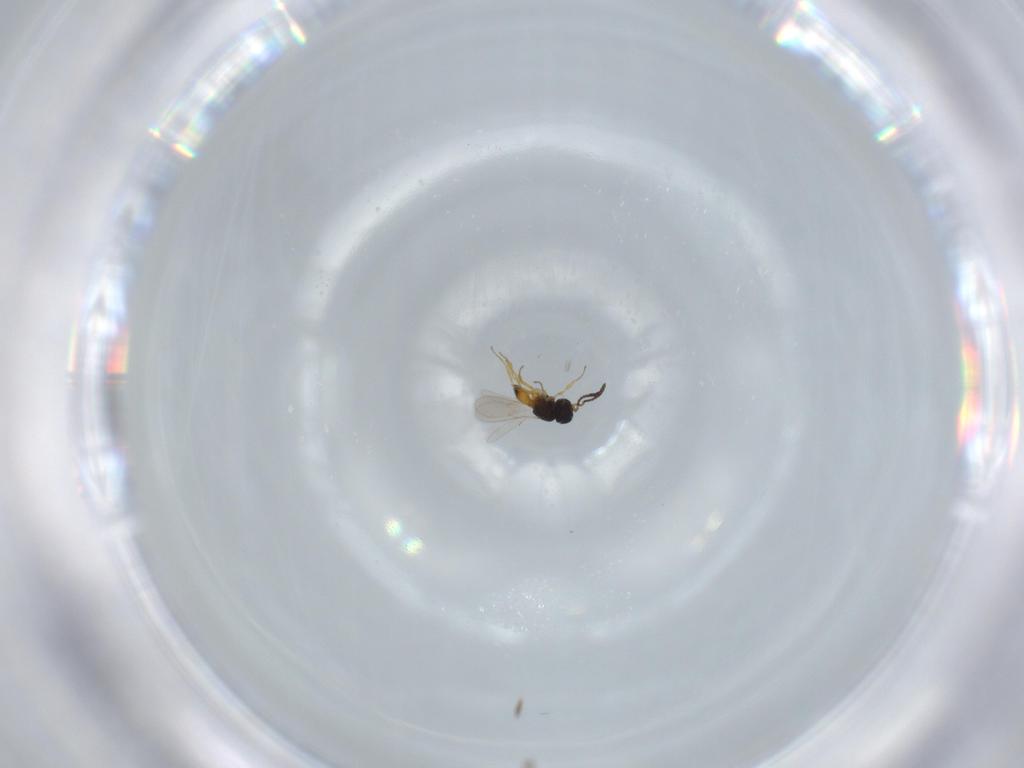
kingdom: Animalia
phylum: Arthropoda
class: Insecta
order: Hymenoptera
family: Scelionidae
